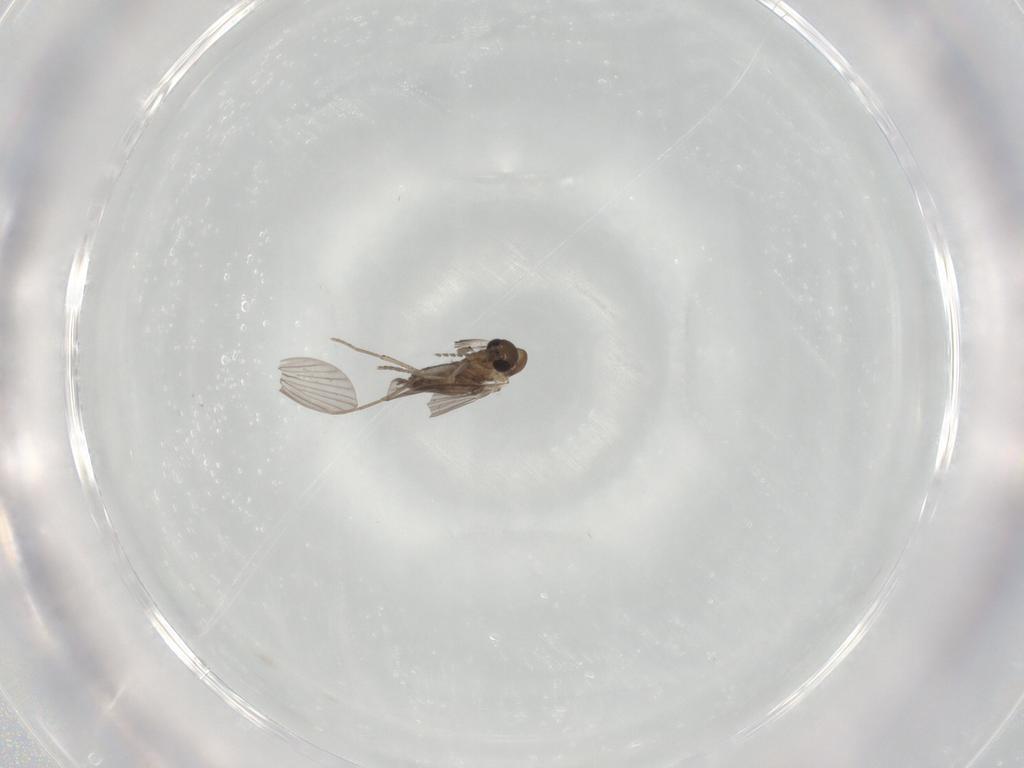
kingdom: Animalia
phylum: Arthropoda
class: Insecta
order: Diptera
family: Psychodidae
